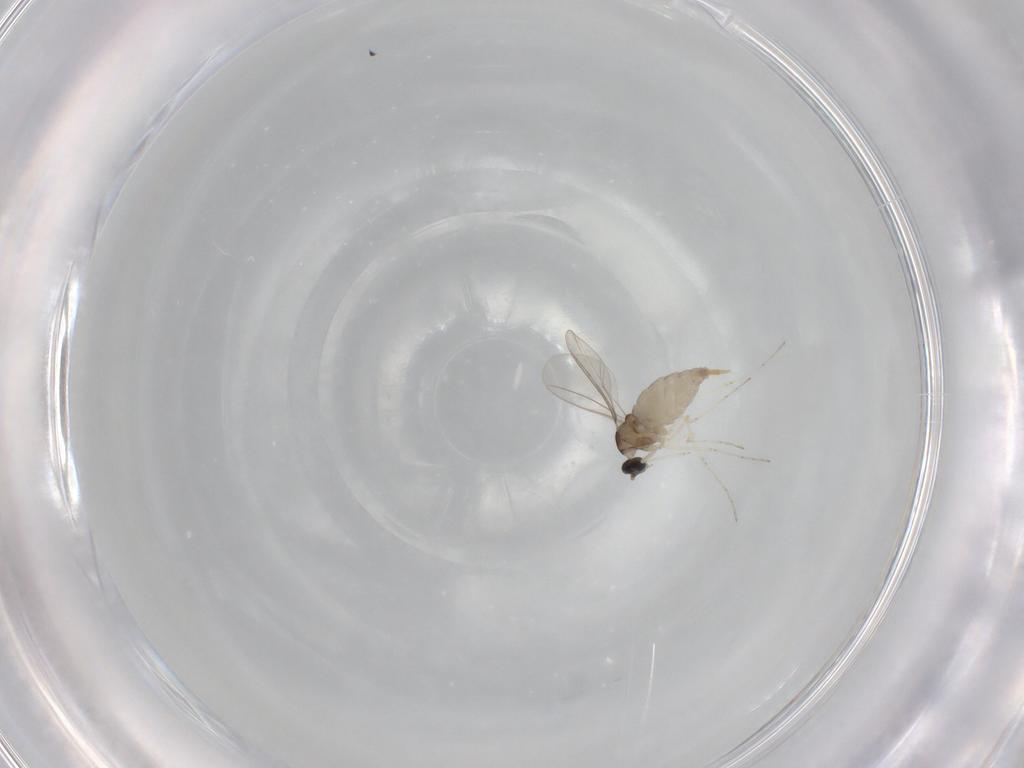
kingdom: Animalia
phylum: Arthropoda
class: Insecta
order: Diptera
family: Cecidomyiidae
